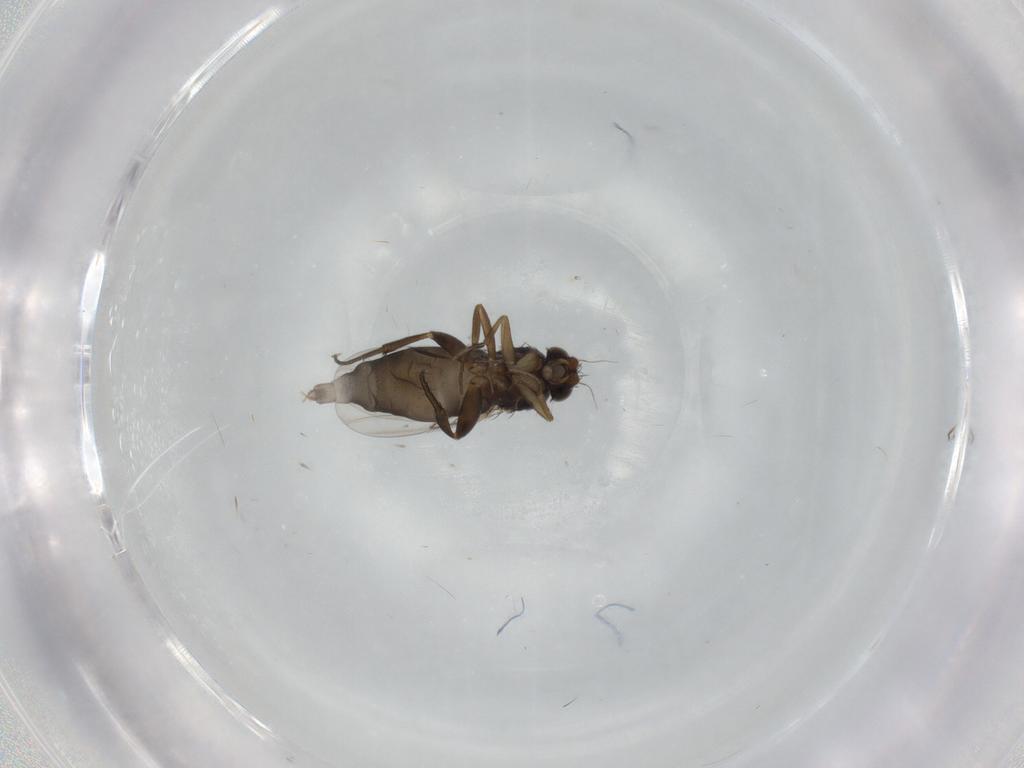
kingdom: Animalia
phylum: Arthropoda
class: Insecta
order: Diptera
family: Phoridae
